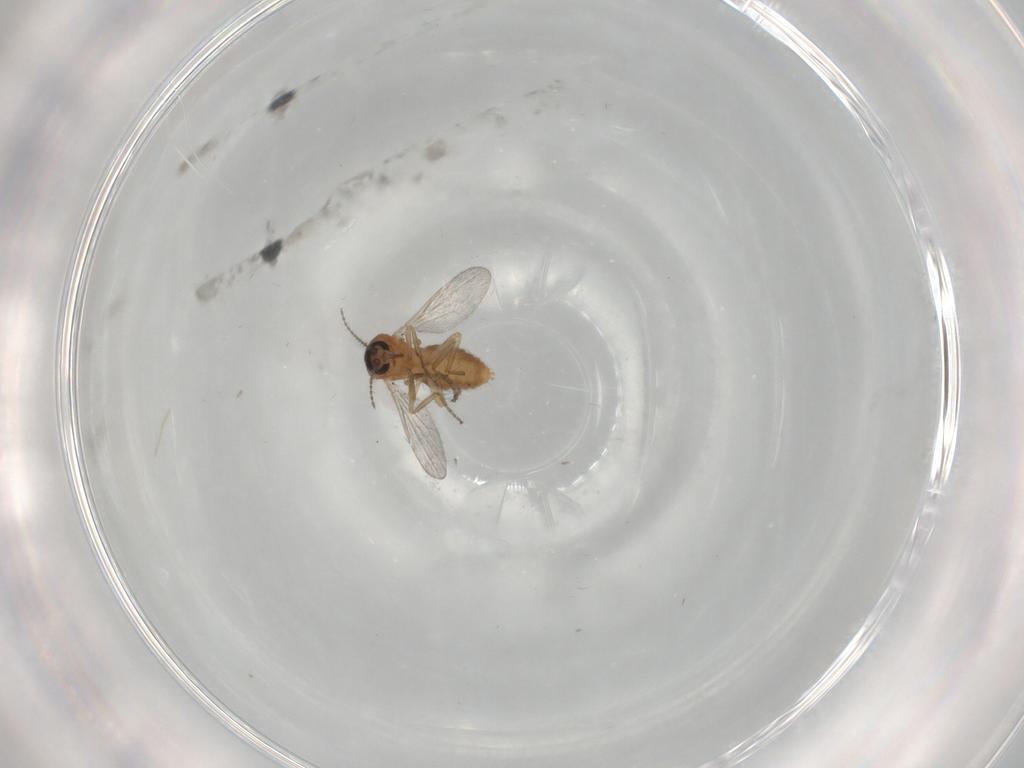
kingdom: Animalia
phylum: Arthropoda
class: Insecta
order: Diptera
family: Ceratopogonidae
